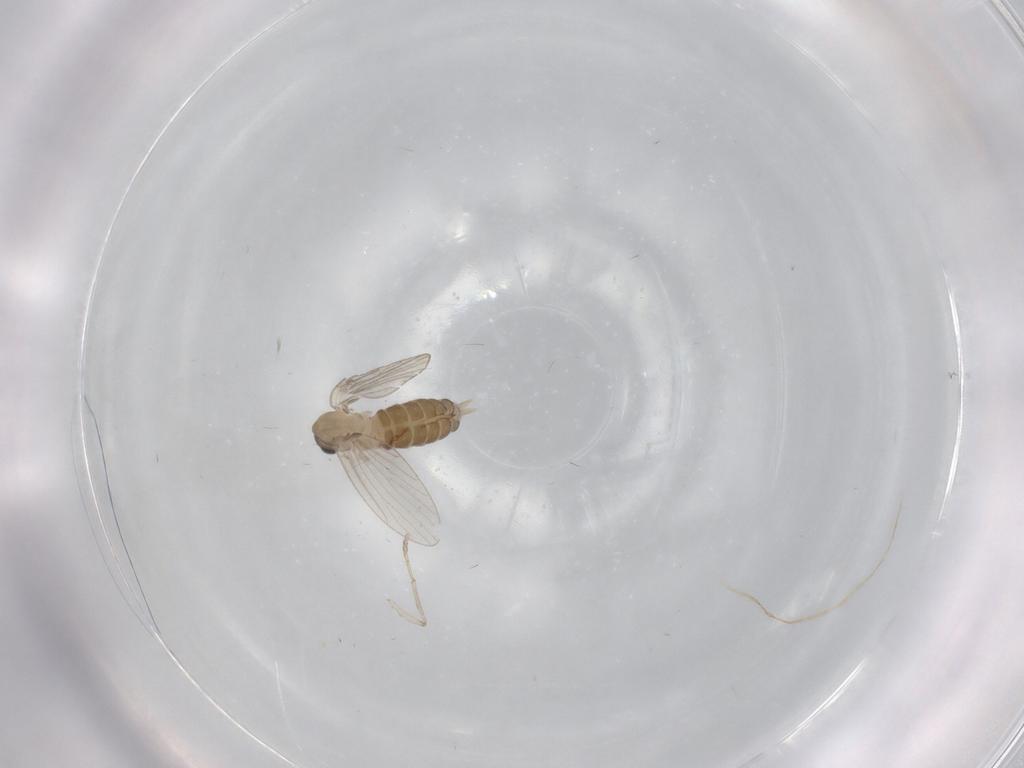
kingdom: Animalia
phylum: Arthropoda
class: Insecta
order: Diptera
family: Psychodidae
